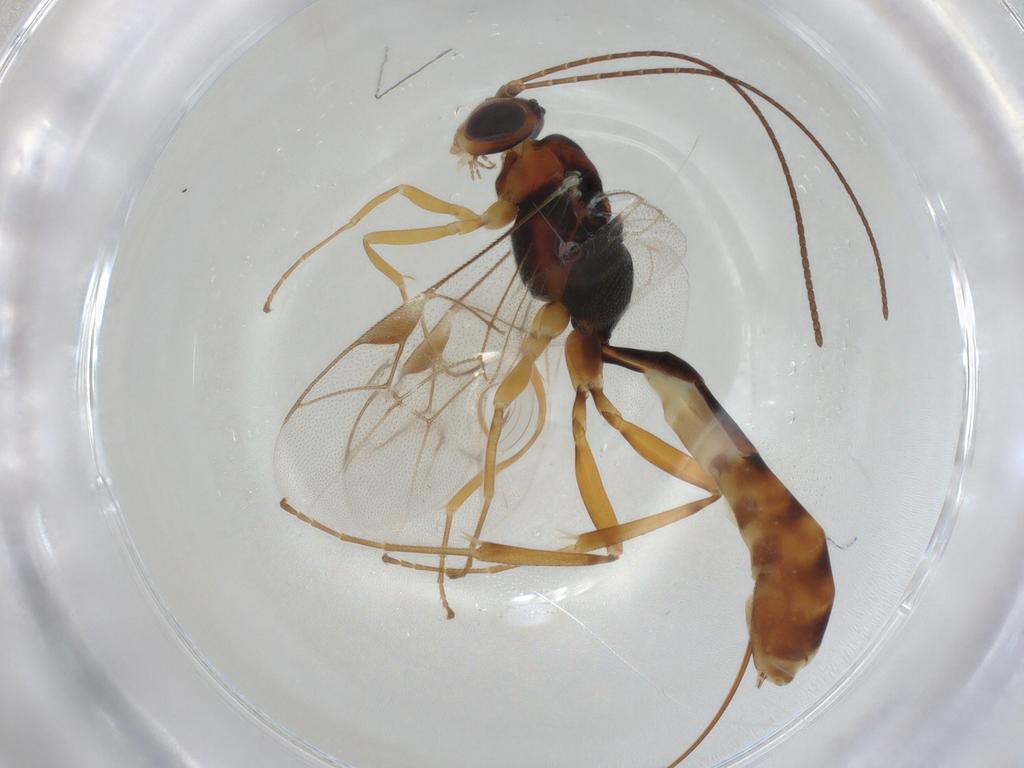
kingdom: Animalia
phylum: Arthropoda
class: Insecta
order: Hymenoptera
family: Ichneumonidae
